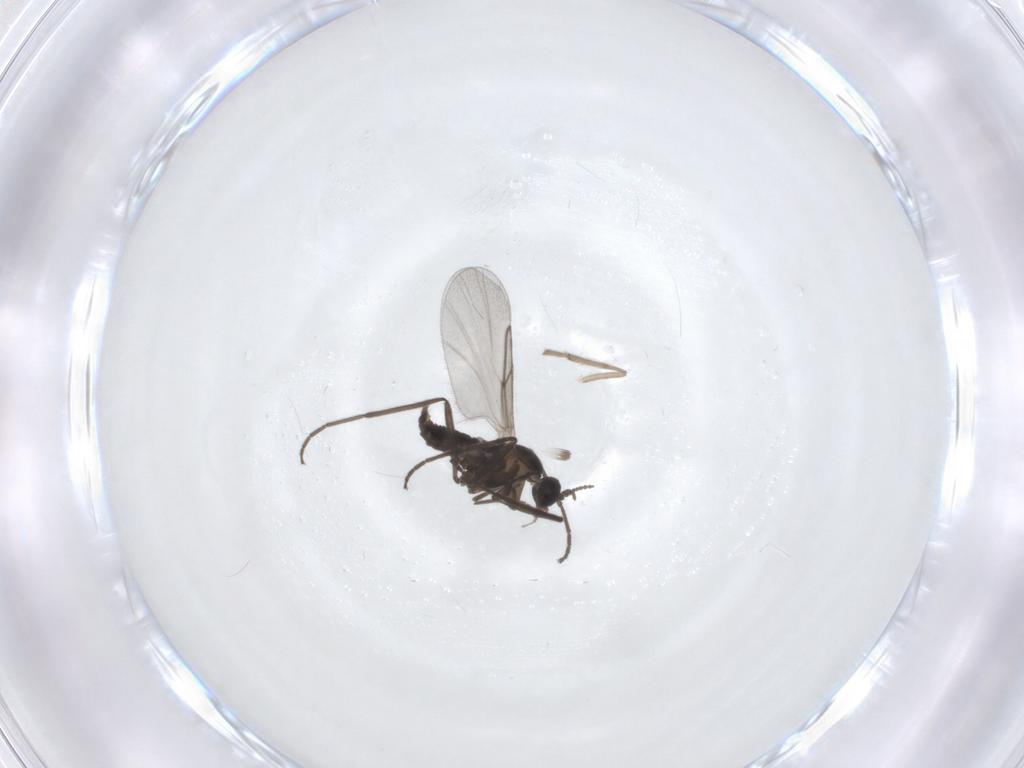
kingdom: Animalia
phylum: Arthropoda
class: Insecta
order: Diptera
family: Cecidomyiidae
